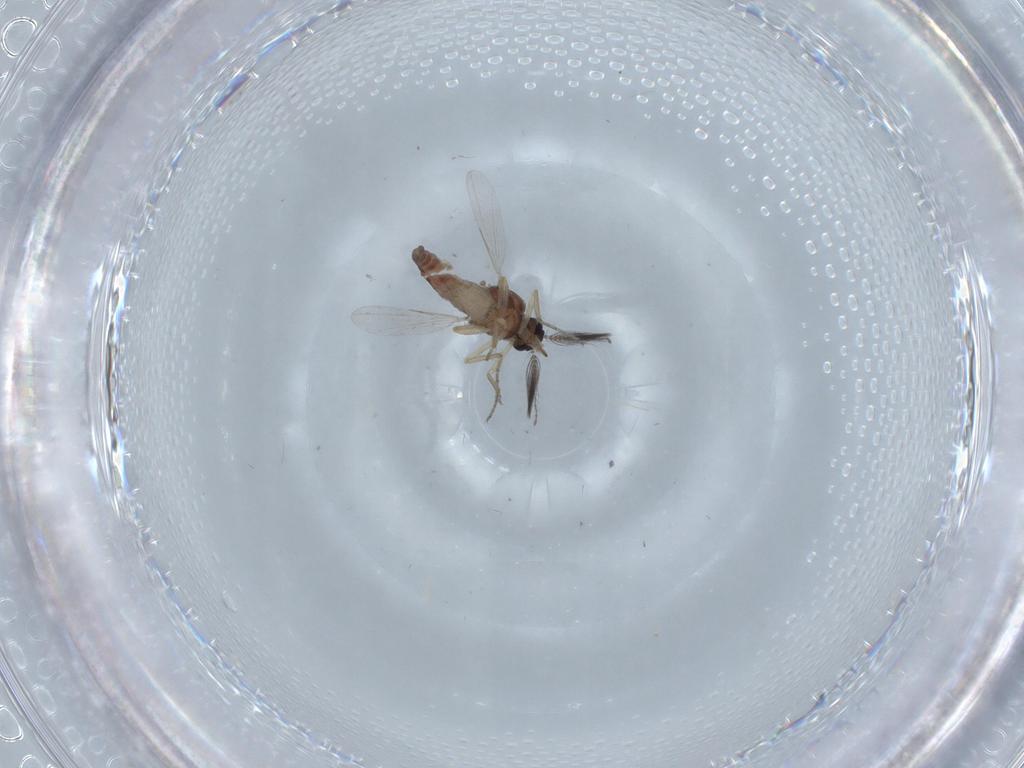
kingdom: Animalia
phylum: Arthropoda
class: Insecta
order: Diptera
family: Ceratopogonidae
